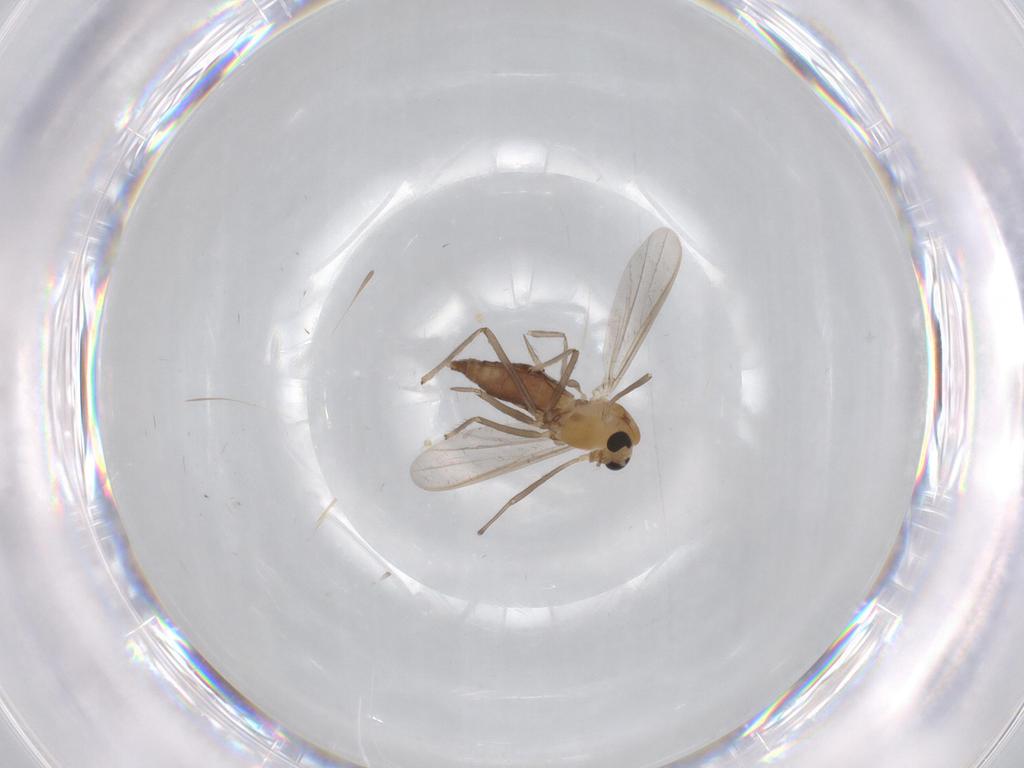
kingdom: Animalia
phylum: Arthropoda
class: Insecta
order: Diptera
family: Chironomidae
